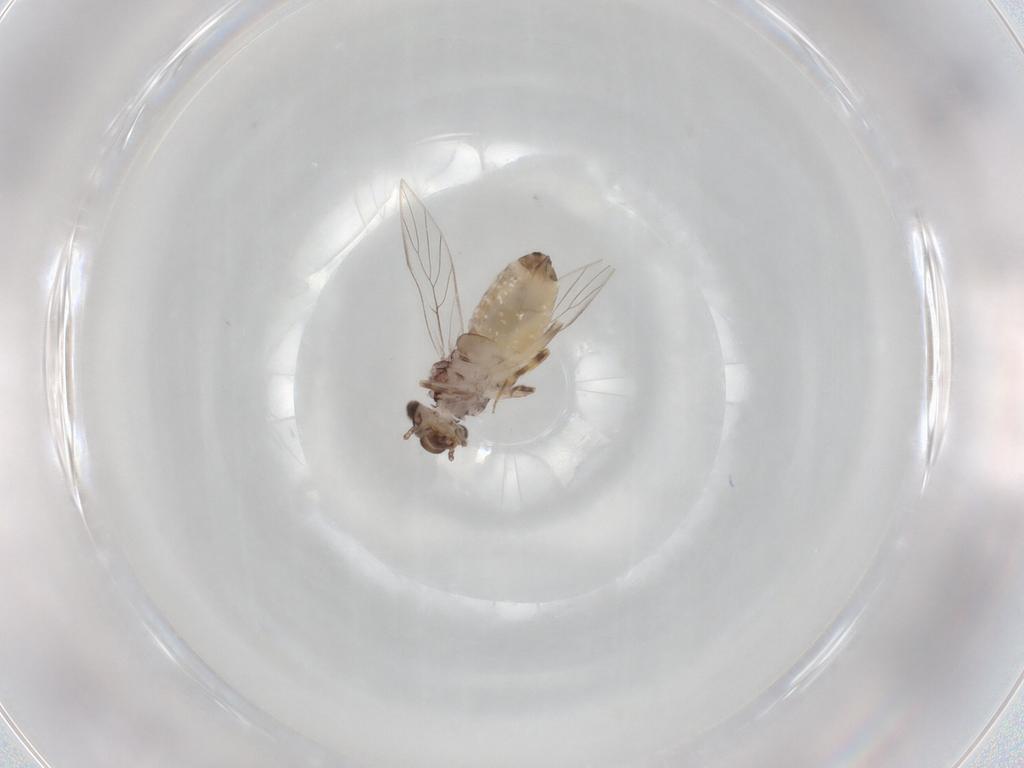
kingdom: Animalia
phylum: Arthropoda
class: Insecta
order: Psocodea
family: Lepidopsocidae
